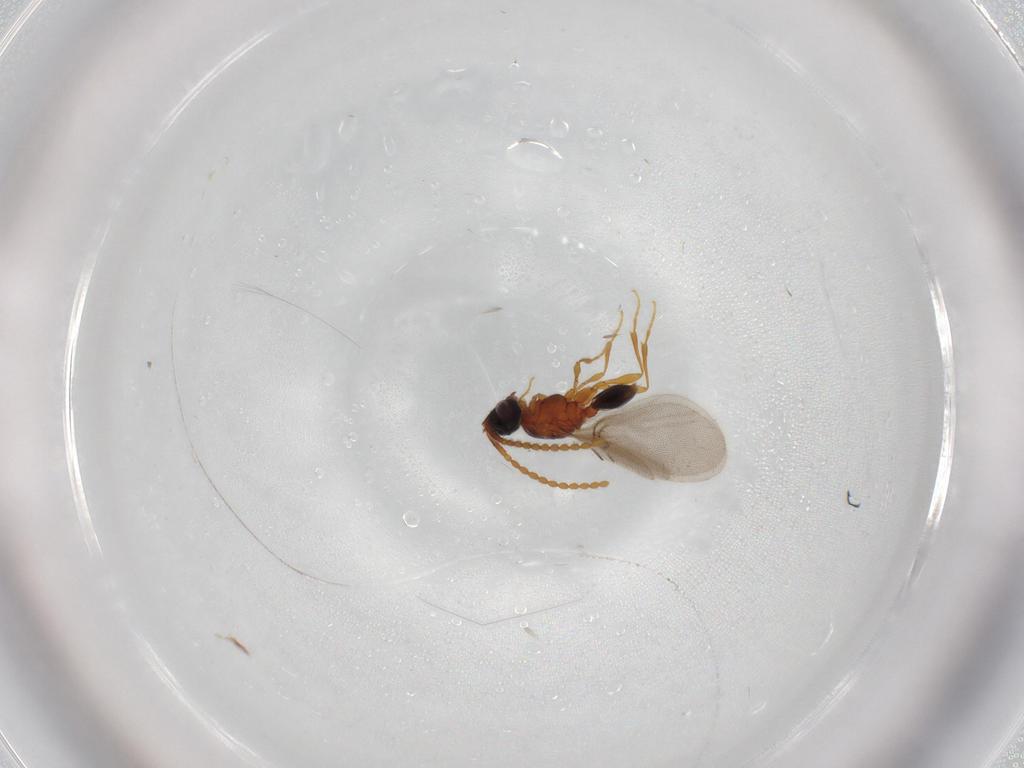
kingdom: Animalia
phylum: Arthropoda
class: Insecta
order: Hymenoptera
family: Diapriidae
